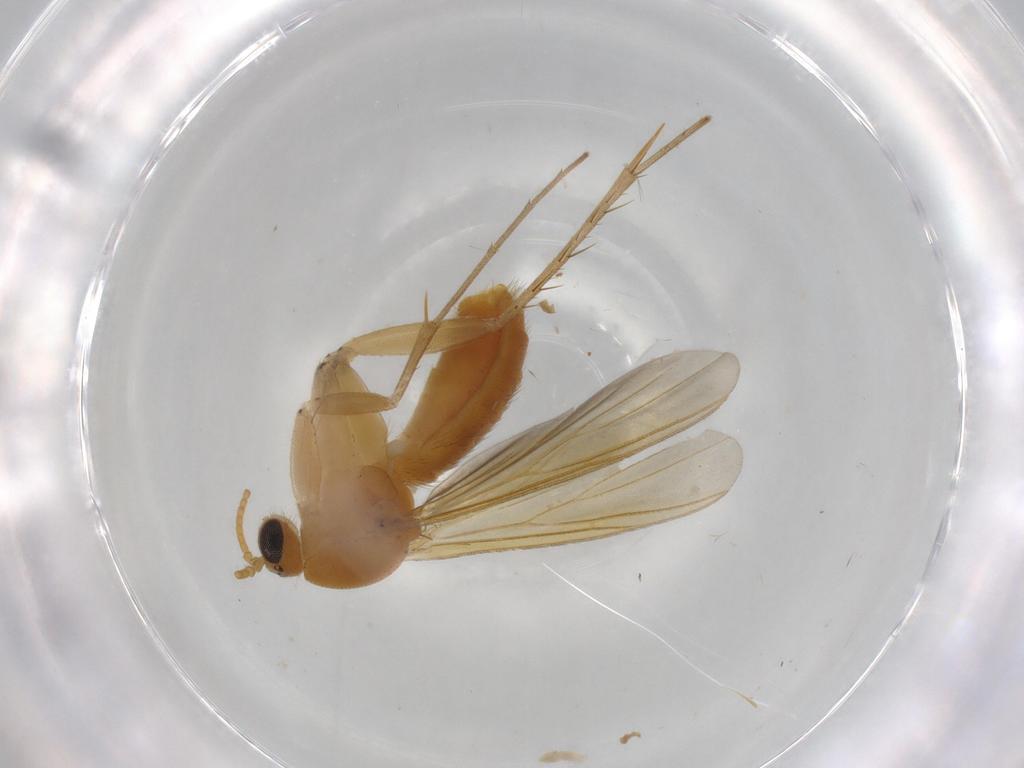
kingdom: Animalia
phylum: Arthropoda
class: Insecta
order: Diptera
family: Mycetophilidae
